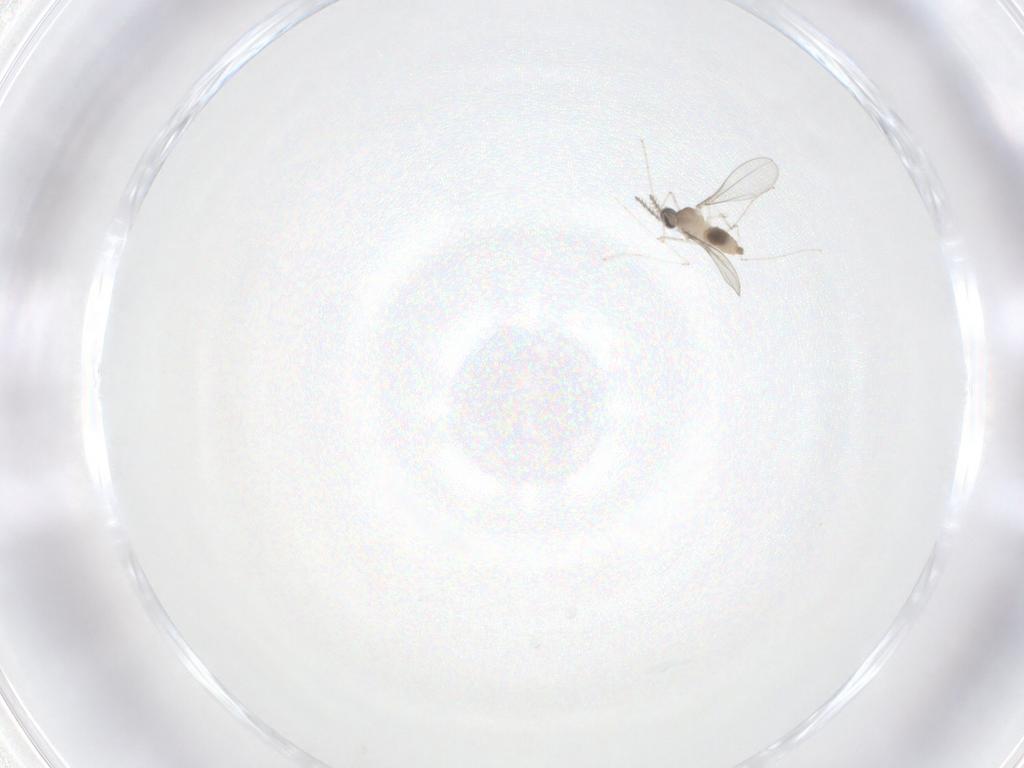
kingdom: Animalia
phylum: Arthropoda
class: Insecta
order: Diptera
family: Cecidomyiidae
